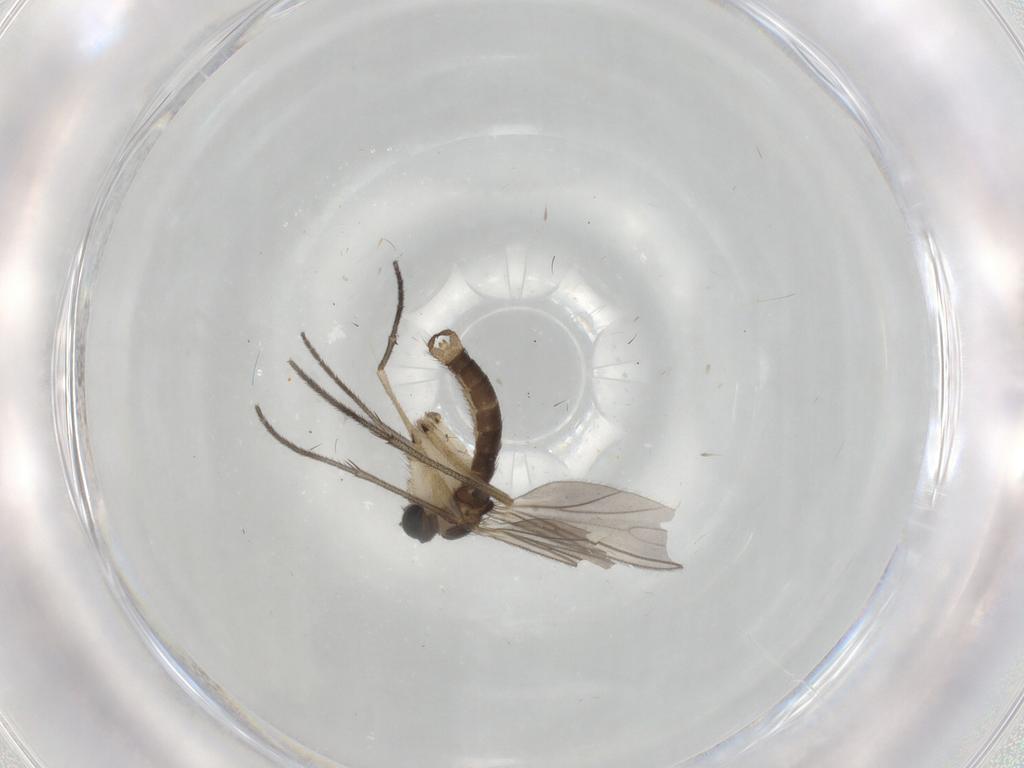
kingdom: Animalia
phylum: Arthropoda
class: Insecta
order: Diptera
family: Sciaridae
